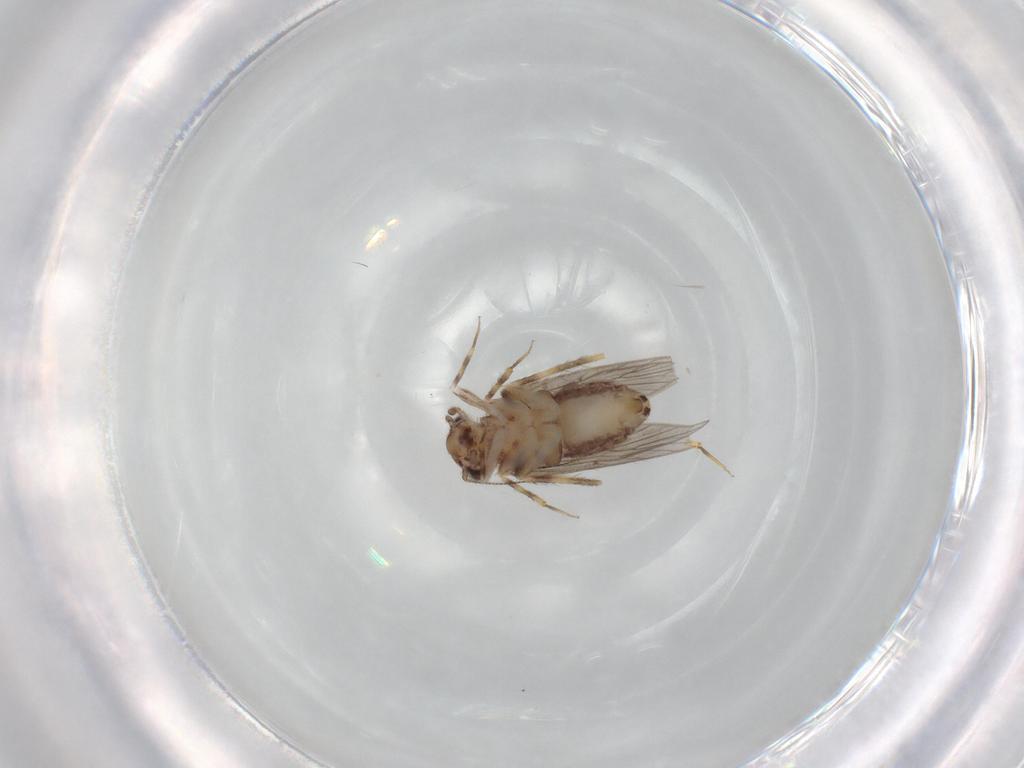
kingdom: Animalia
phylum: Arthropoda
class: Insecta
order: Psocodea
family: Lepidopsocidae
